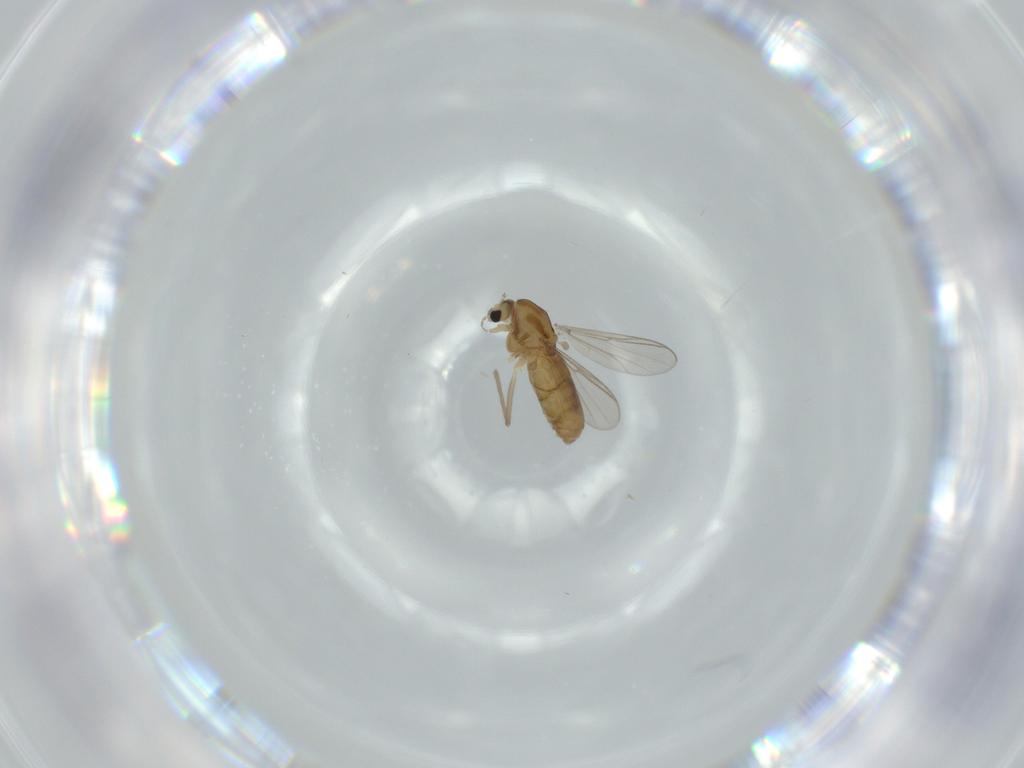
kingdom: Animalia
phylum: Arthropoda
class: Insecta
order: Diptera
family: Chironomidae
